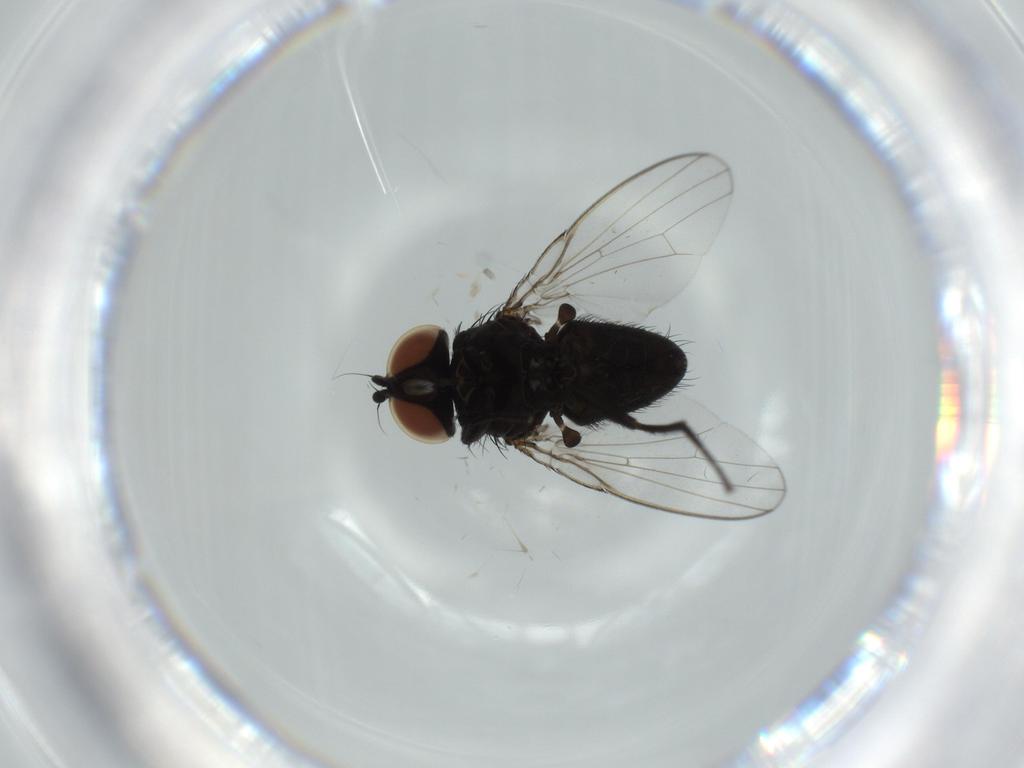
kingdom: Animalia
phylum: Arthropoda
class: Insecta
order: Diptera
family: Milichiidae
